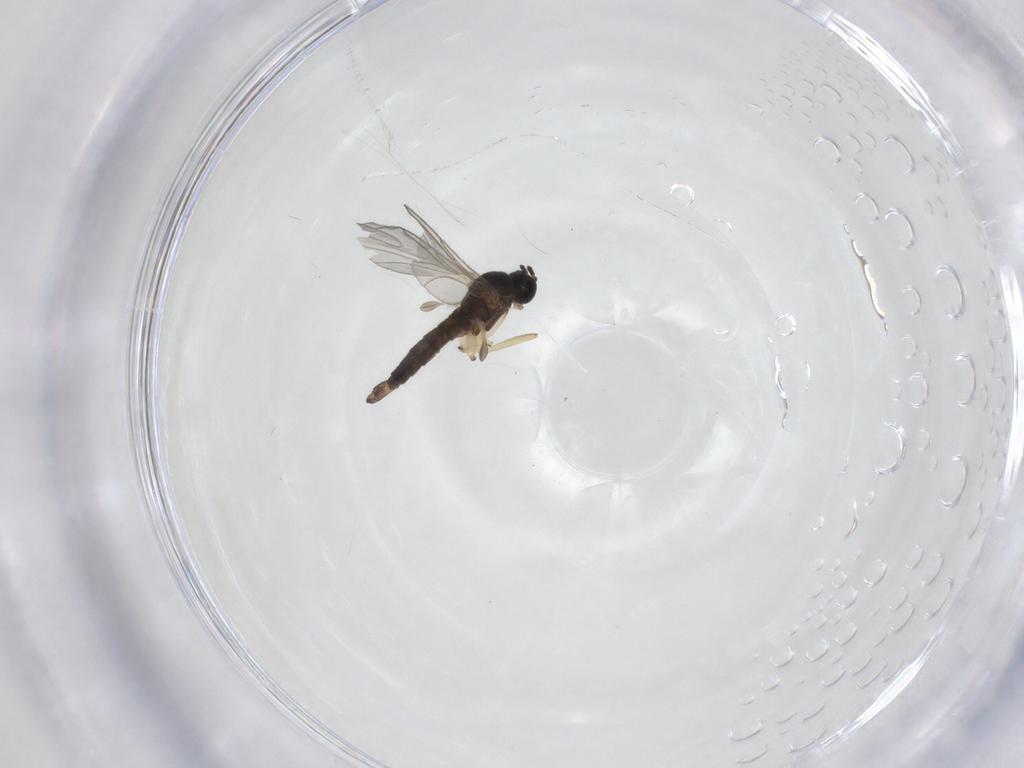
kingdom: Animalia
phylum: Arthropoda
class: Insecta
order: Diptera
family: Sciaridae
